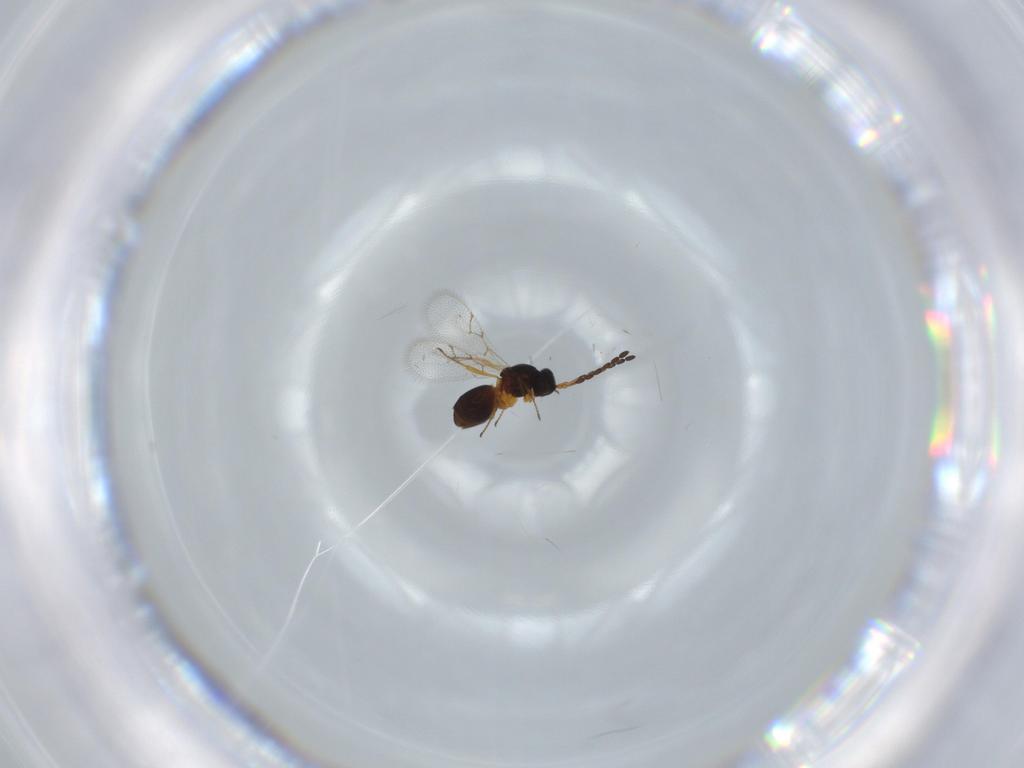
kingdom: Animalia
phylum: Arthropoda
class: Insecta
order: Hymenoptera
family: Figitidae
